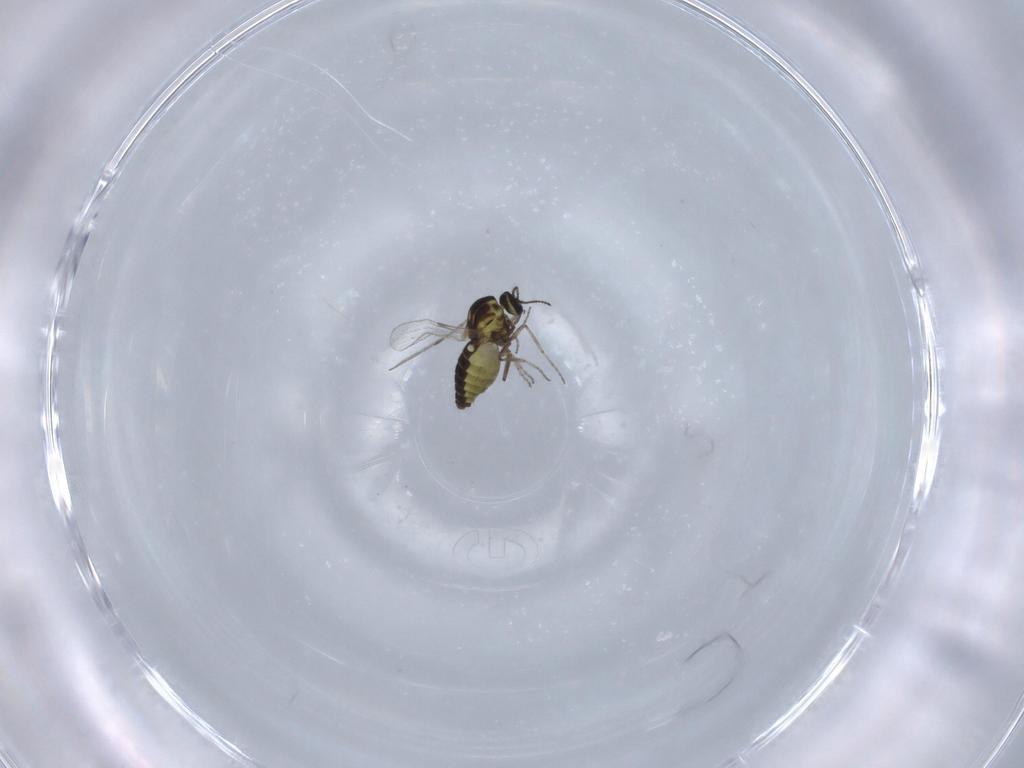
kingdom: Animalia
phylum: Arthropoda
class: Insecta
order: Diptera
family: Ceratopogonidae
